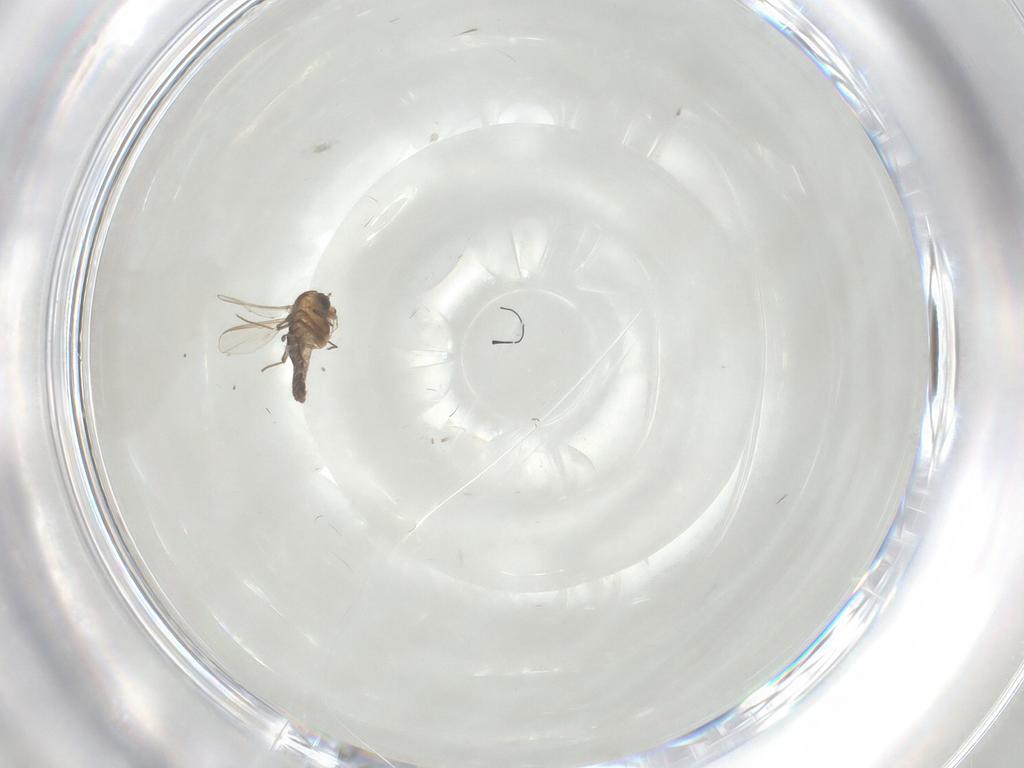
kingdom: Animalia
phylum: Arthropoda
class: Insecta
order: Diptera
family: Chironomidae
